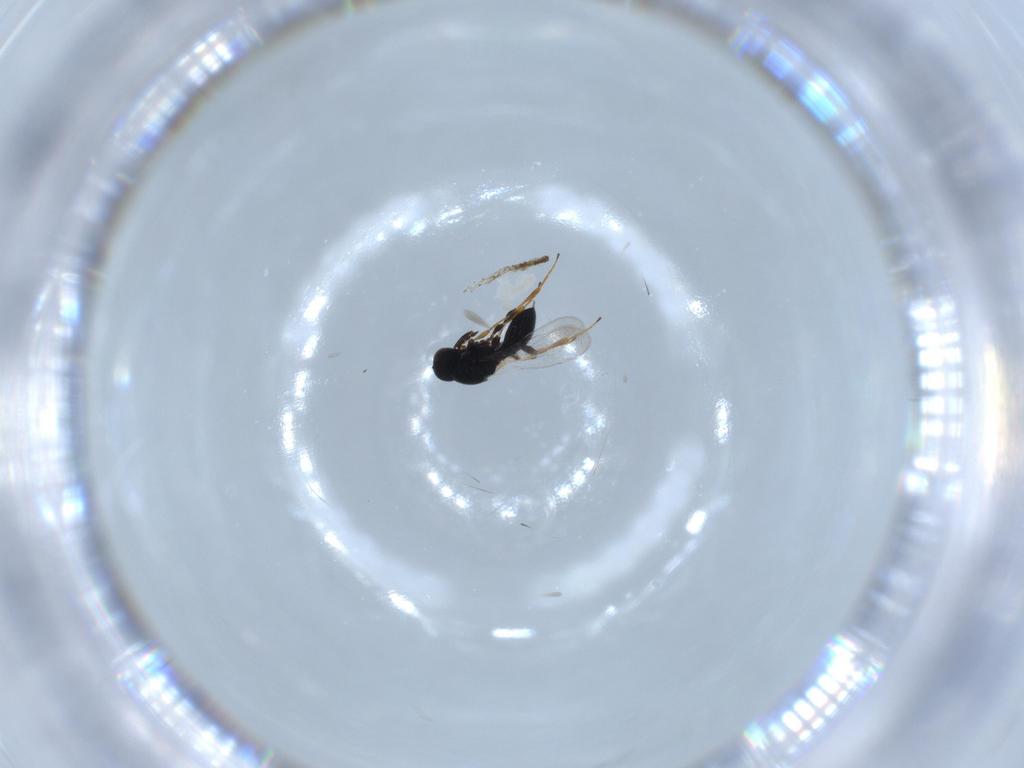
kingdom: Animalia
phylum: Arthropoda
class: Insecta
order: Hymenoptera
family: Platygastridae
